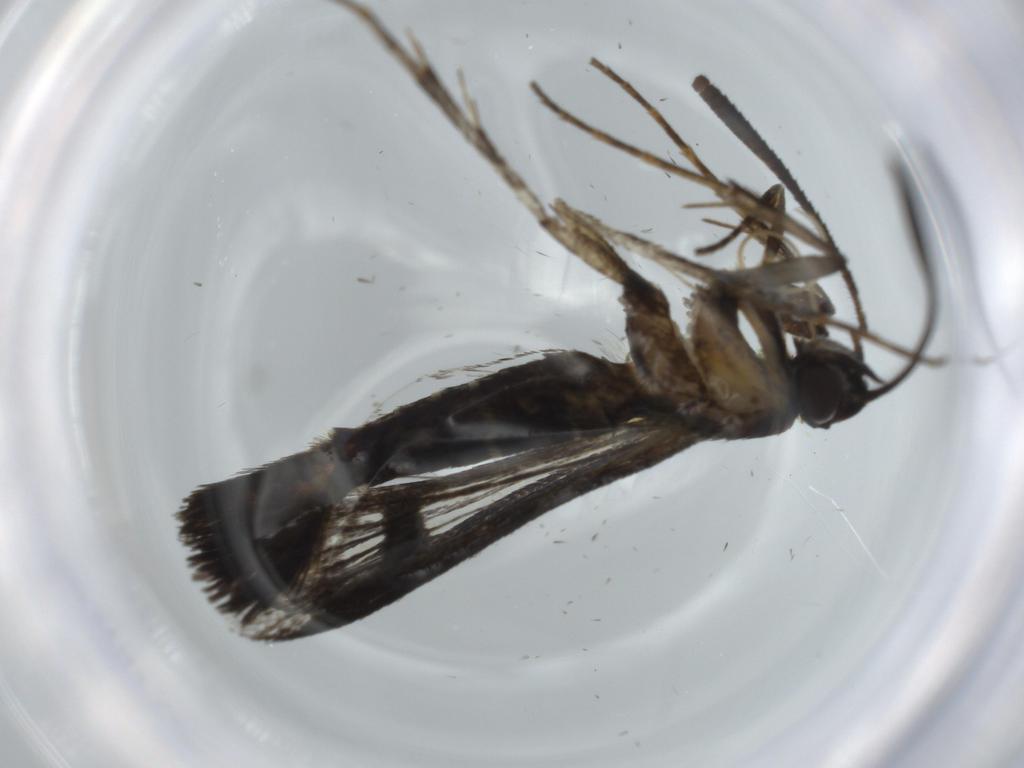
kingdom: Animalia
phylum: Arthropoda
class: Insecta
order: Lepidoptera
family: Sesiidae
